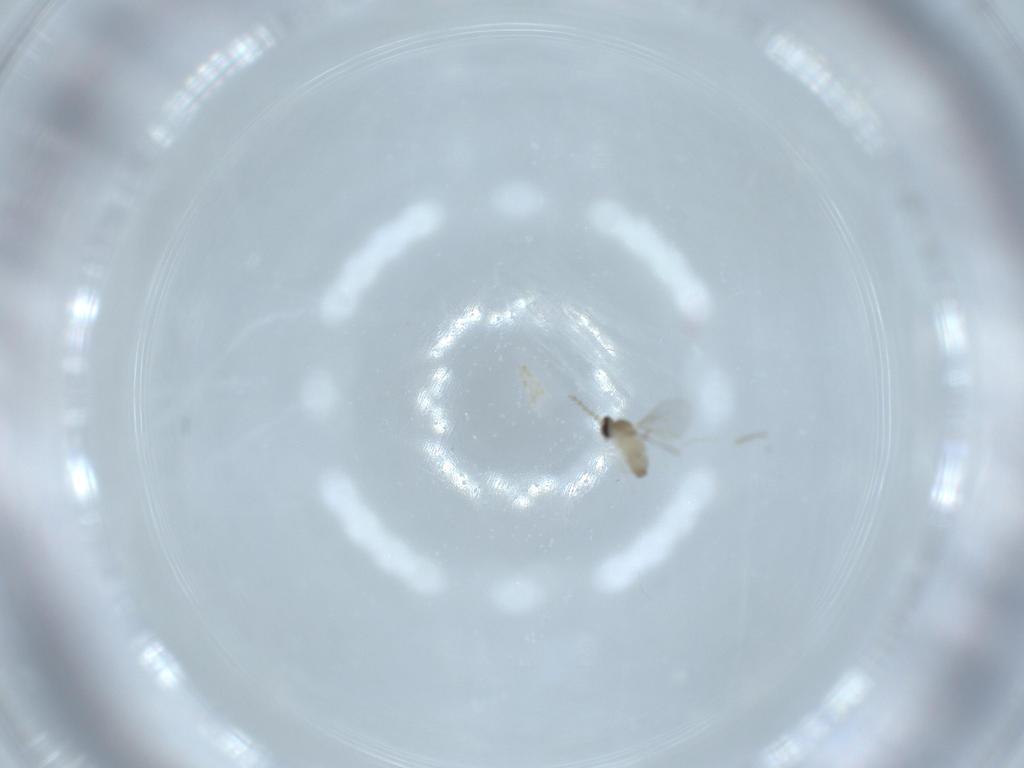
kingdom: Animalia
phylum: Arthropoda
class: Insecta
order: Diptera
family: Cecidomyiidae
